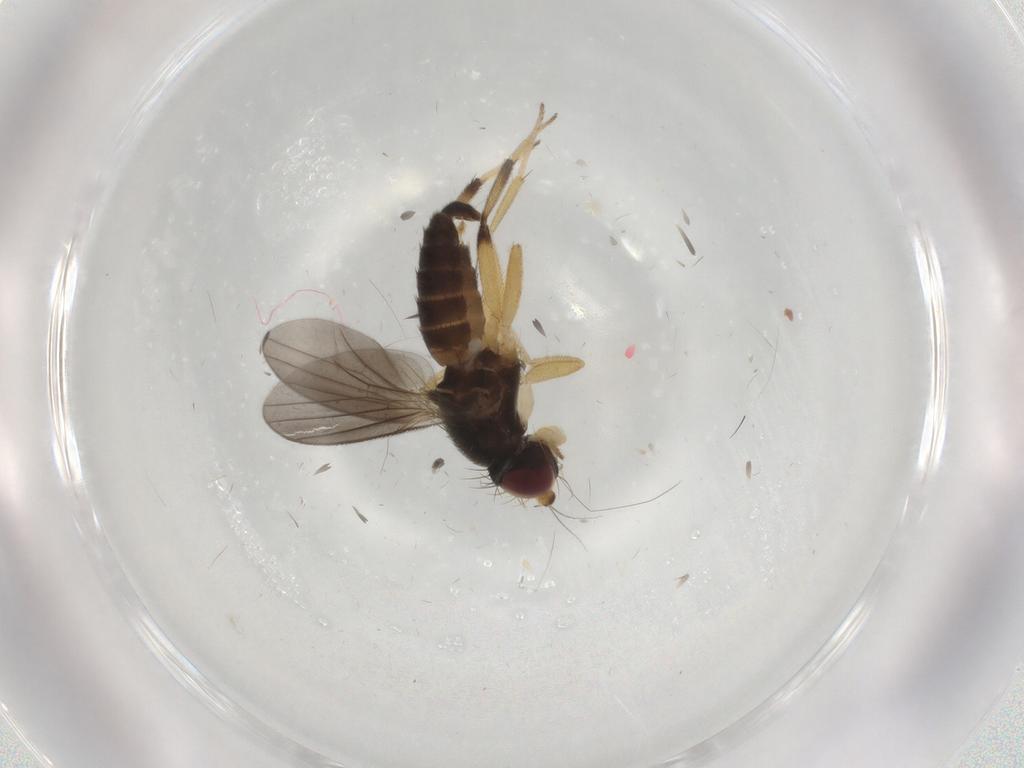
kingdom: Animalia
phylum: Arthropoda
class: Insecta
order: Diptera
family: Clusiidae
